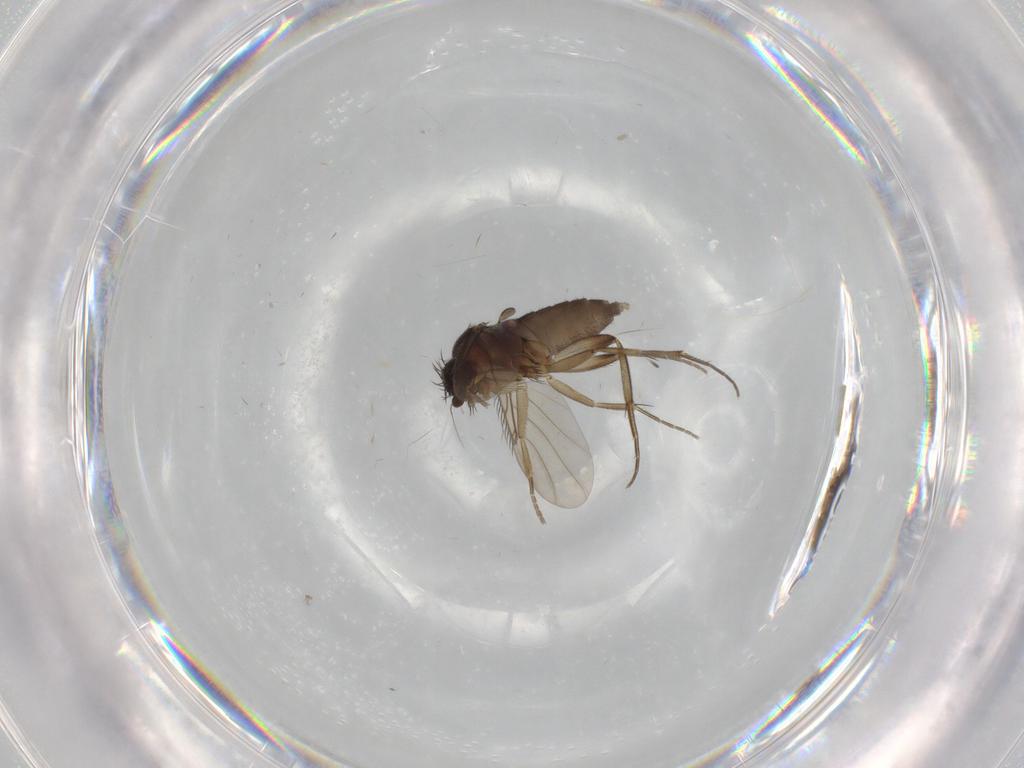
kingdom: Animalia
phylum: Arthropoda
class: Insecta
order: Diptera
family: Phoridae
